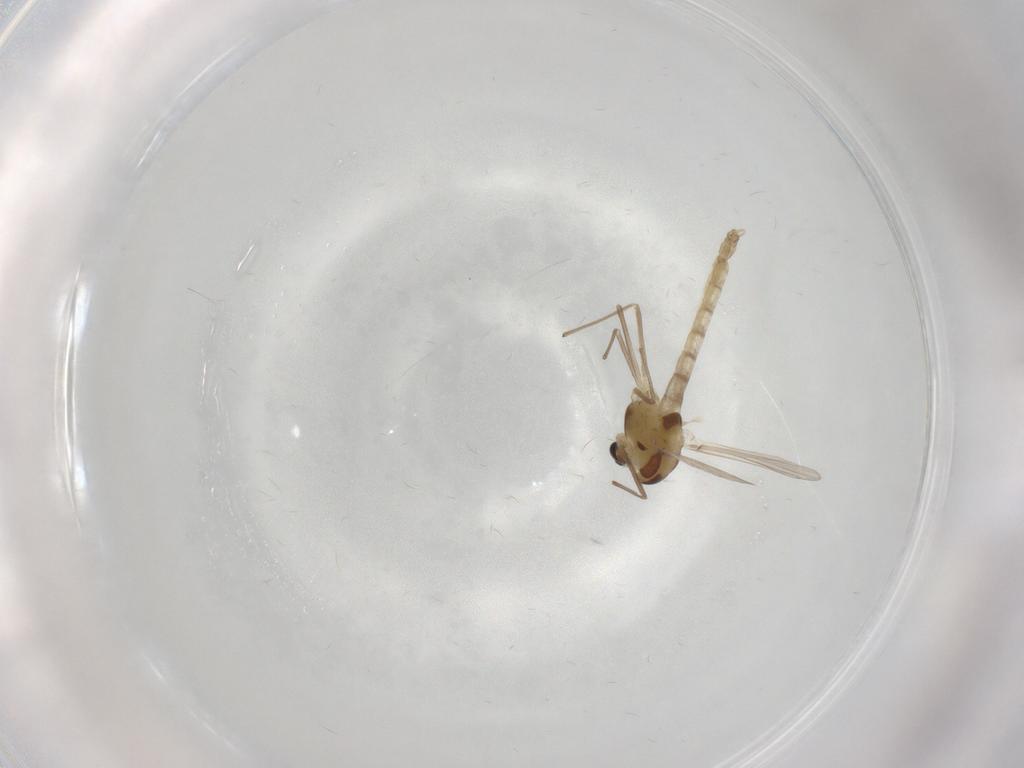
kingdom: Animalia
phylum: Arthropoda
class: Insecta
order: Diptera
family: Chironomidae
